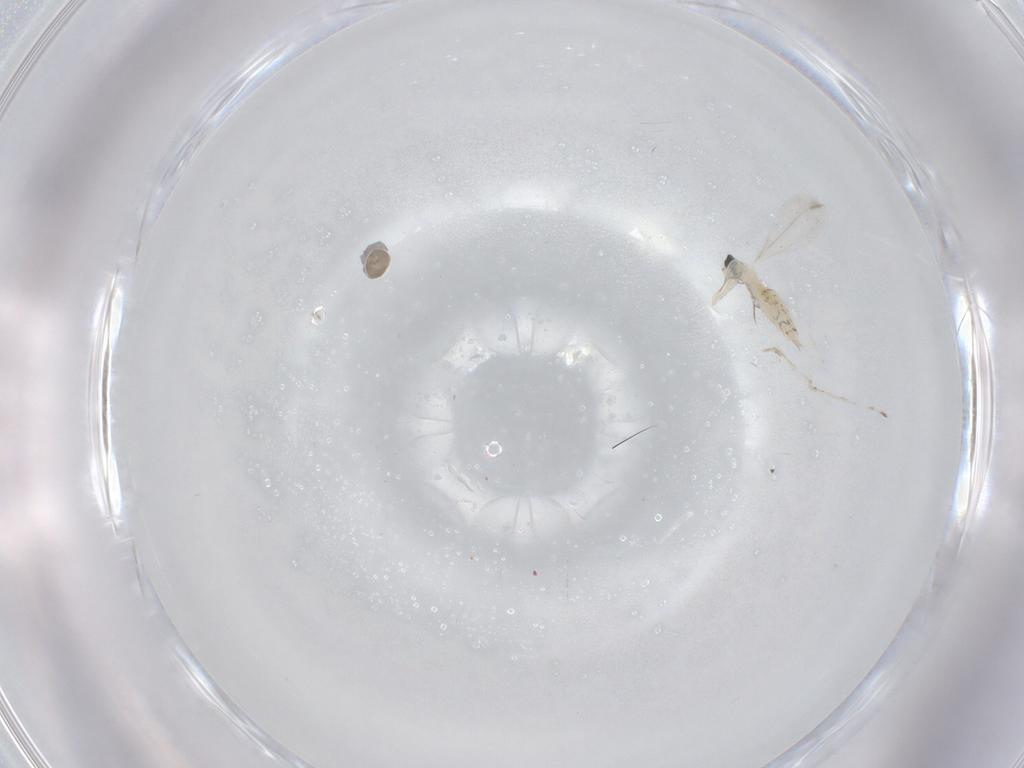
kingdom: Animalia
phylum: Arthropoda
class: Insecta
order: Diptera
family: Cecidomyiidae
